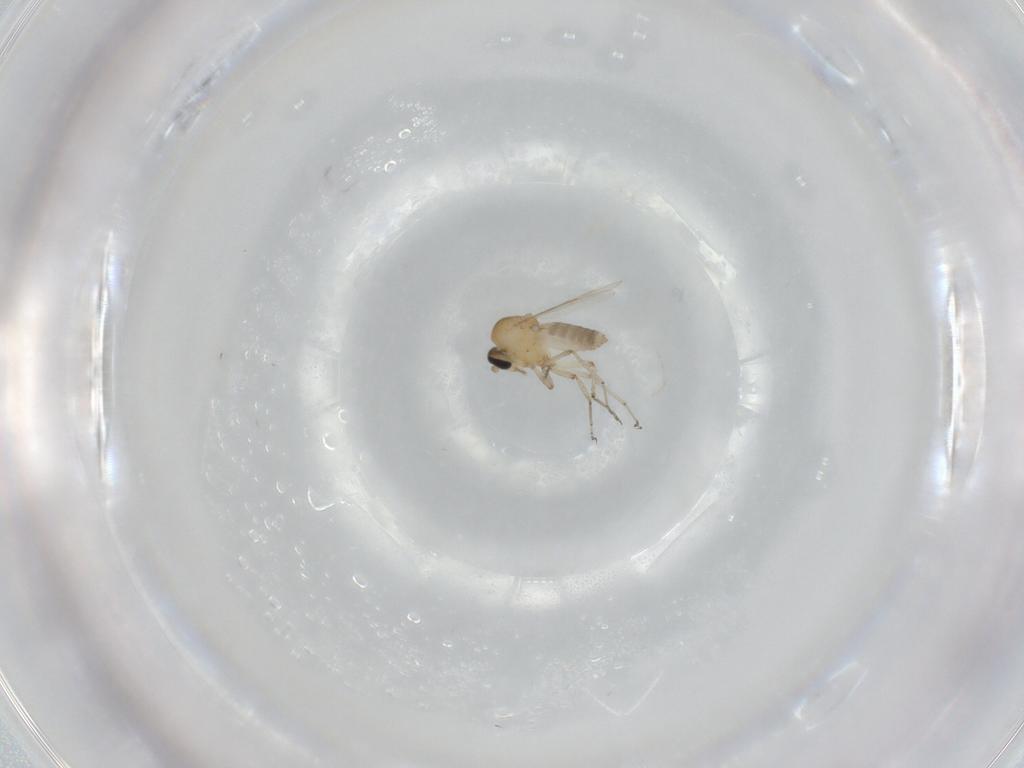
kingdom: Animalia
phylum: Arthropoda
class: Insecta
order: Diptera
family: Ceratopogonidae
